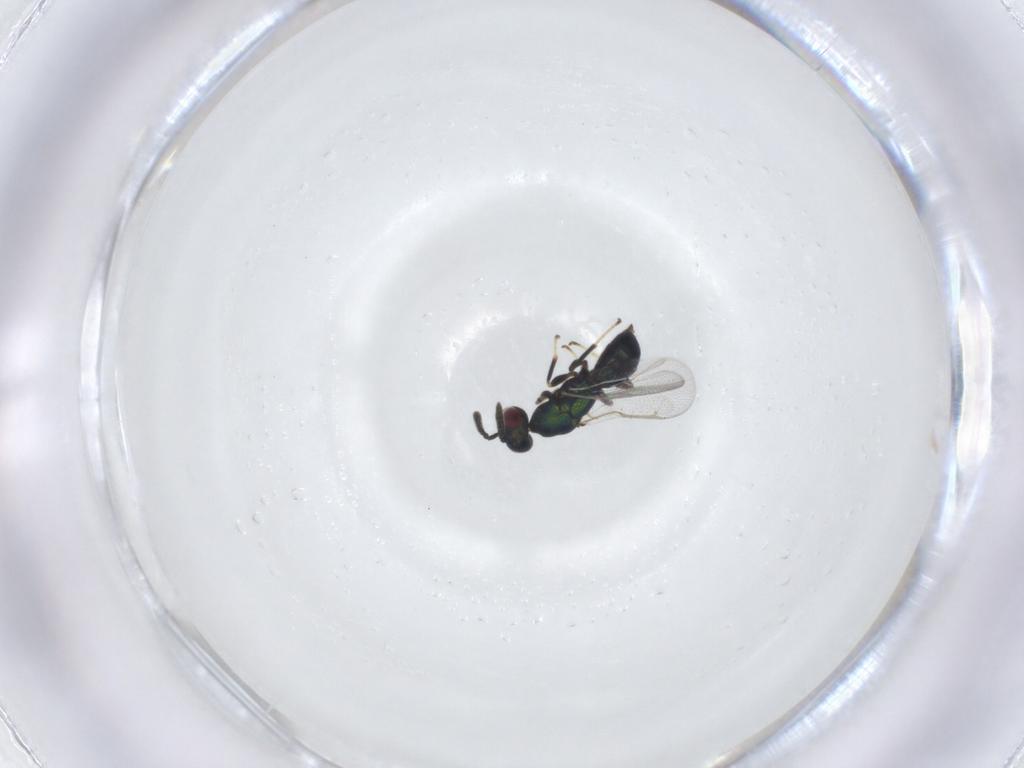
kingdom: Animalia
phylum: Arthropoda
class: Insecta
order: Hymenoptera
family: Torymidae
